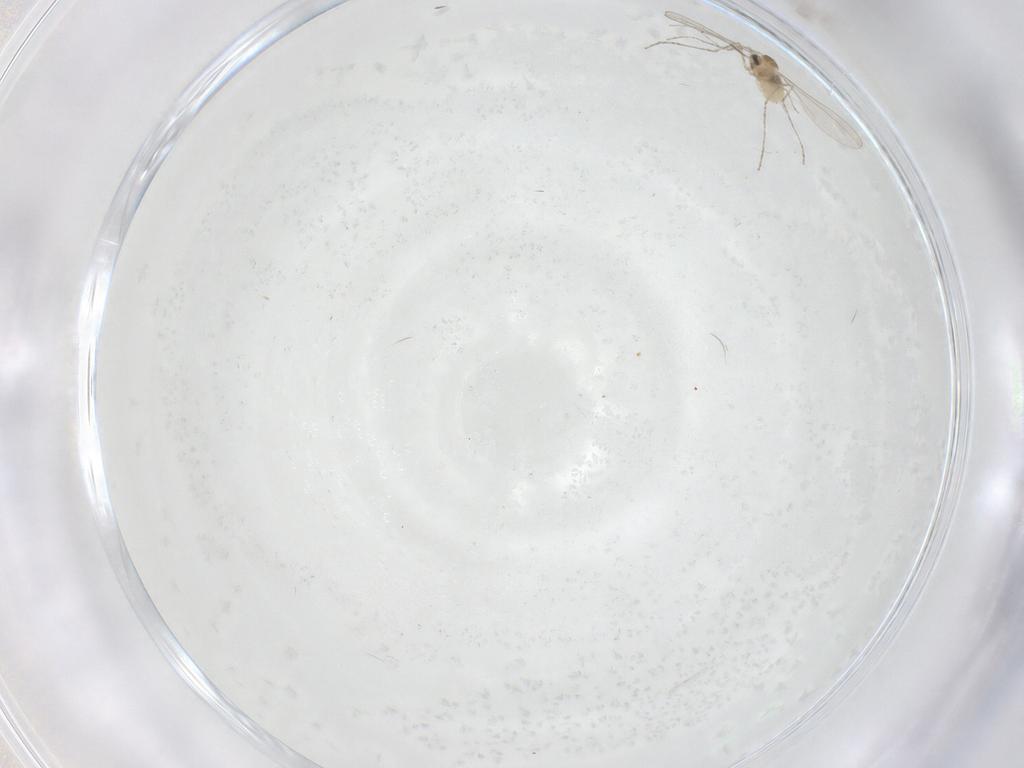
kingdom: Animalia
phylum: Arthropoda
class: Insecta
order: Diptera
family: Cecidomyiidae
